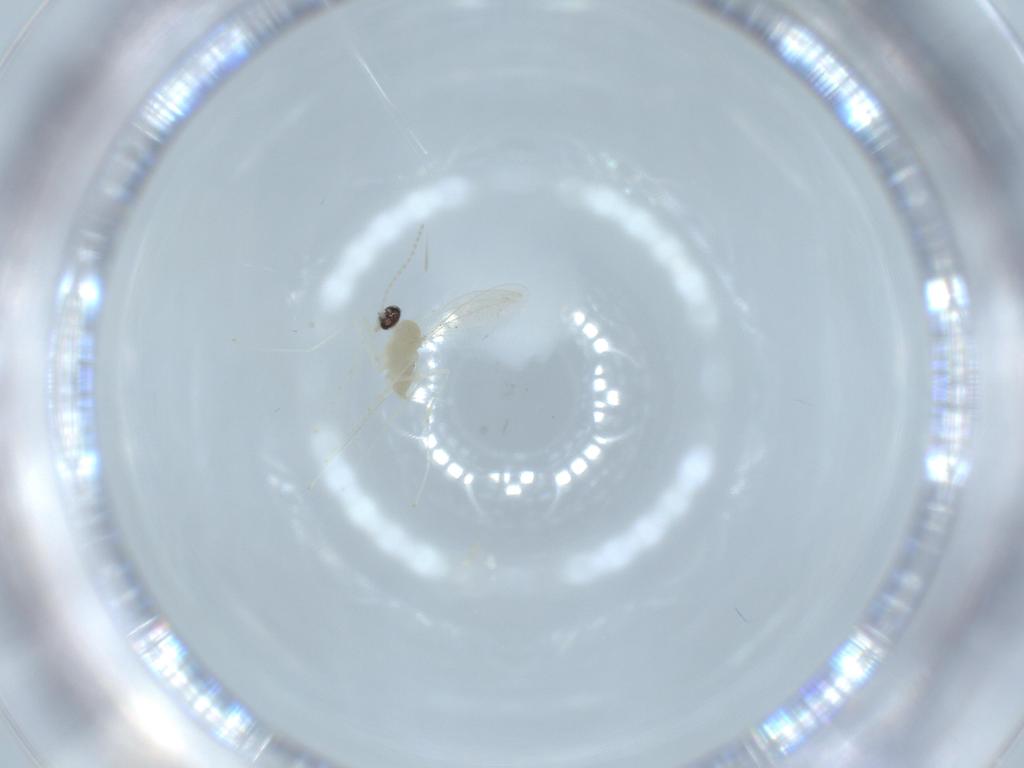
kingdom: Animalia
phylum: Arthropoda
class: Insecta
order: Diptera
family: Cecidomyiidae
